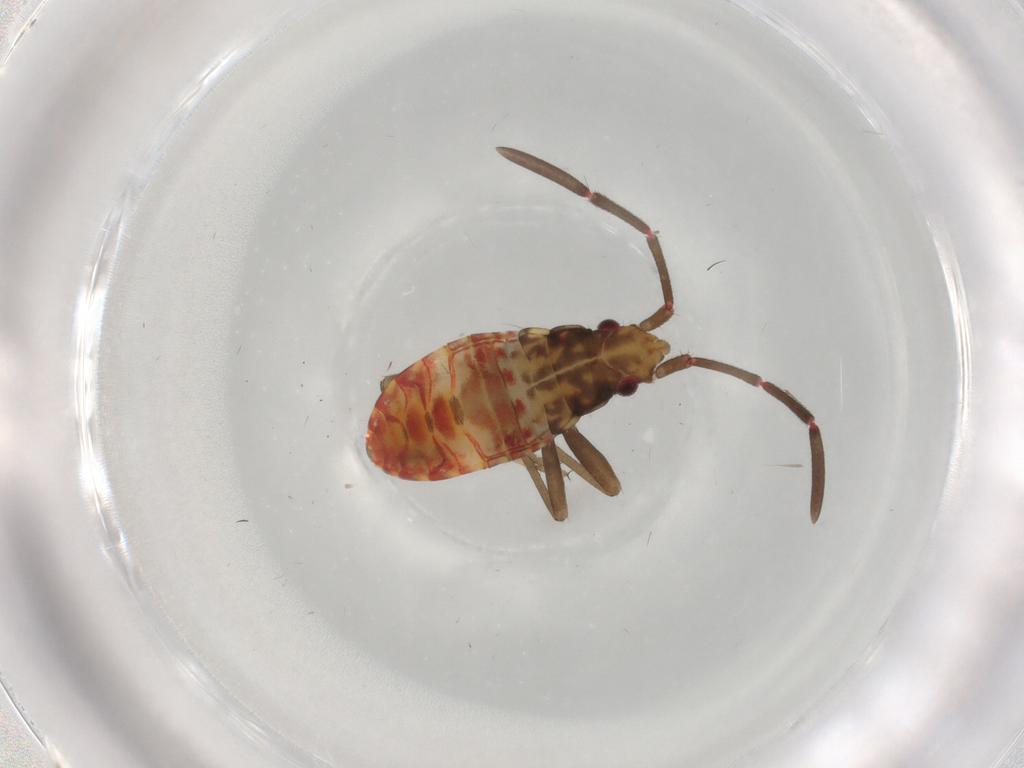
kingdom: Animalia
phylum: Arthropoda
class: Insecta
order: Hemiptera
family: Rhyparochromidae
